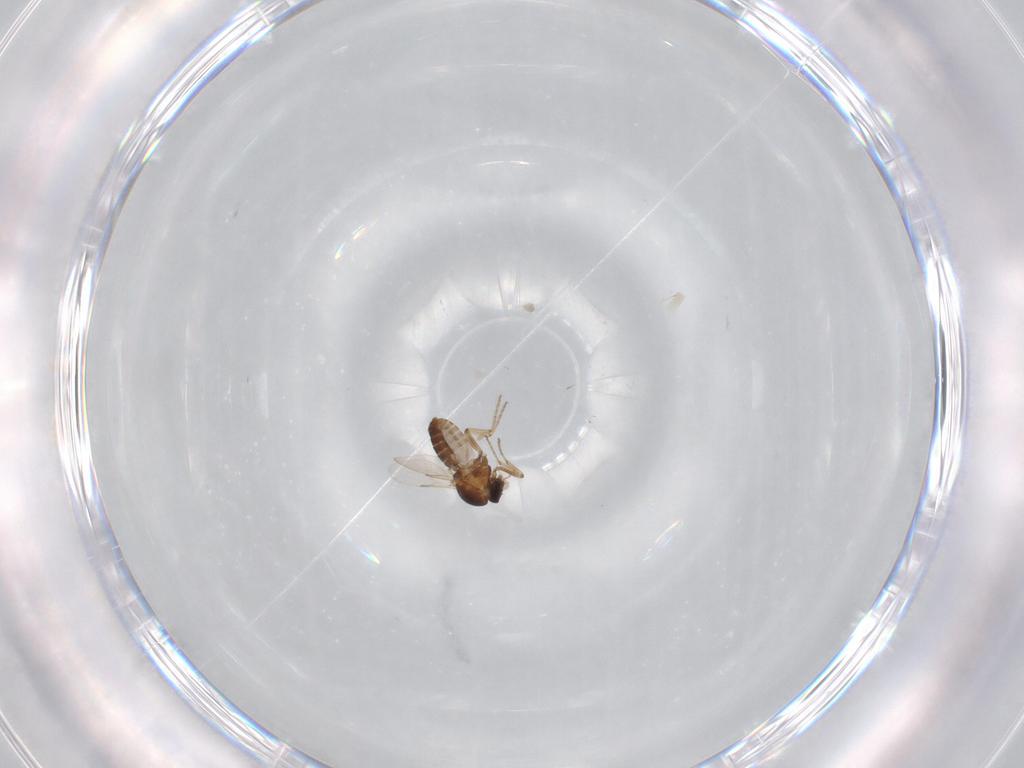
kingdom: Animalia
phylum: Arthropoda
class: Insecta
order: Diptera
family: Ceratopogonidae
